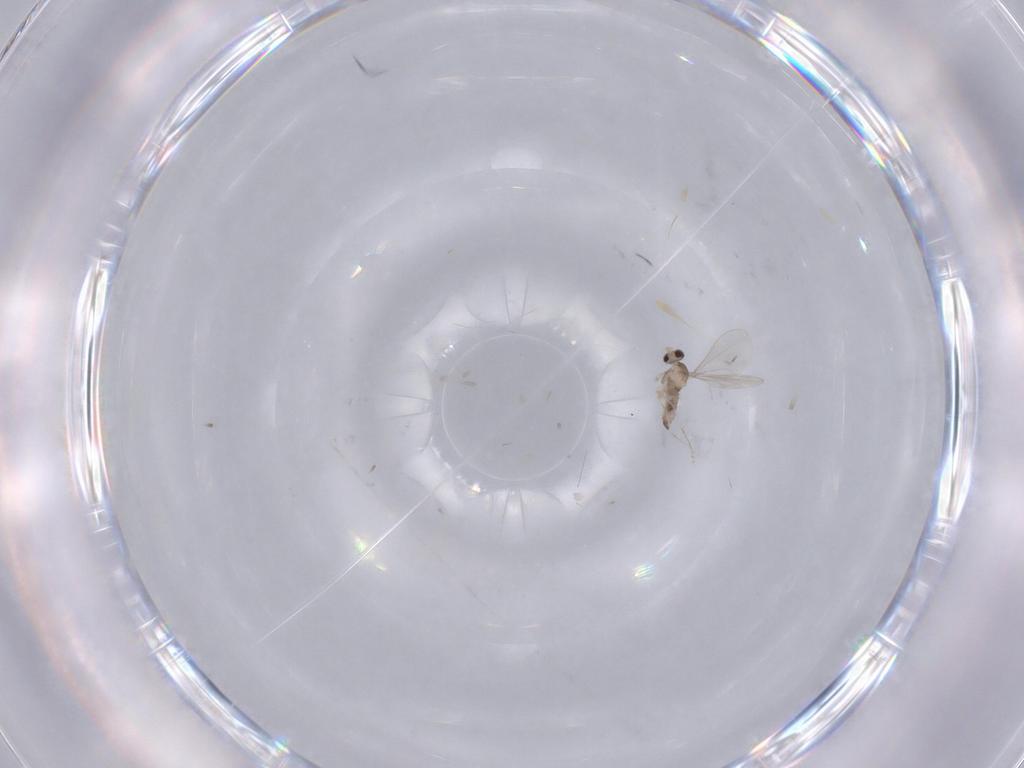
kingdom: Animalia
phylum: Arthropoda
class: Insecta
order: Diptera
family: Cecidomyiidae
